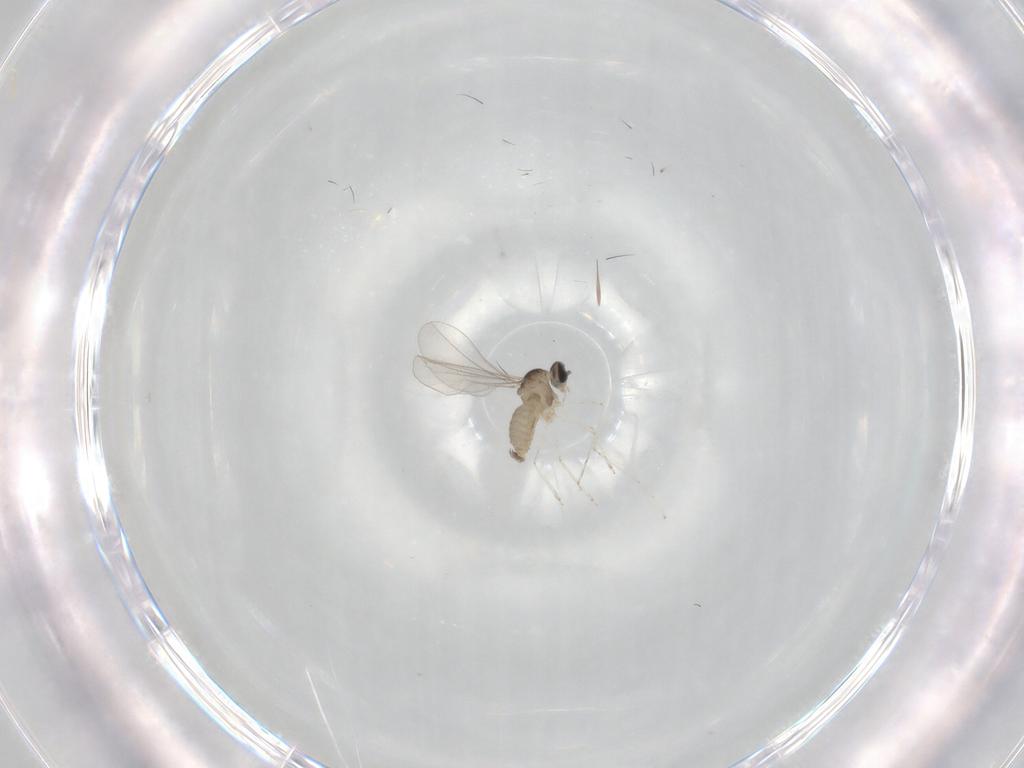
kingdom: Animalia
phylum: Arthropoda
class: Insecta
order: Diptera
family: Cecidomyiidae
